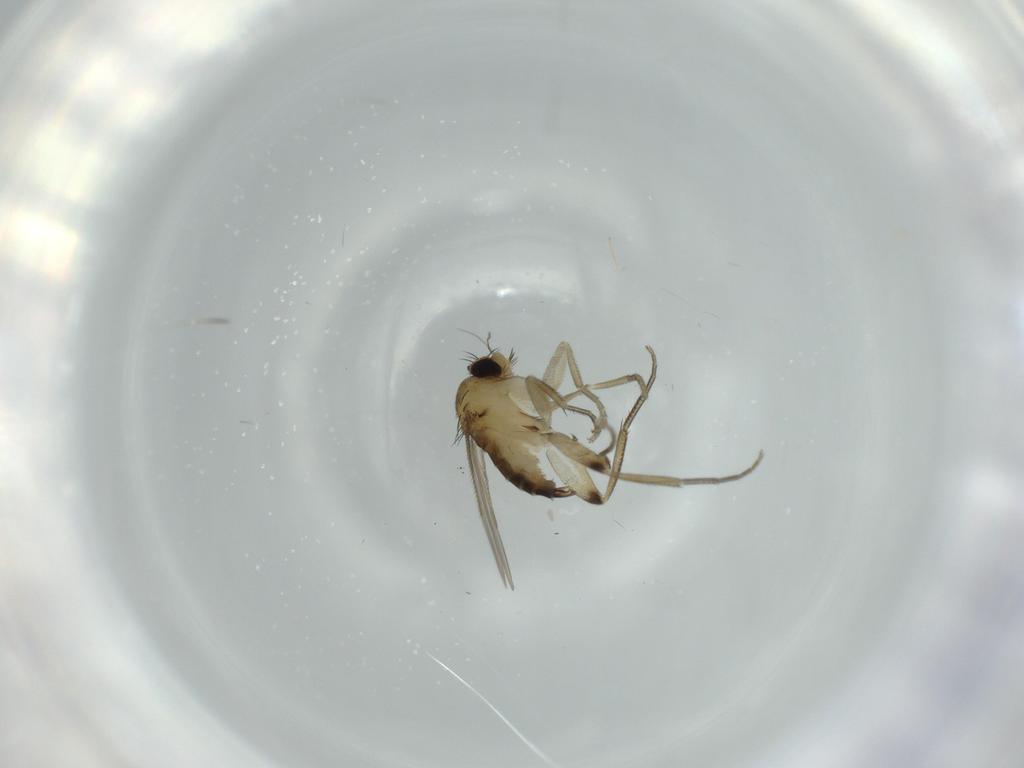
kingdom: Animalia
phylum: Arthropoda
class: Insecta
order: Diptera
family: Phoridae
